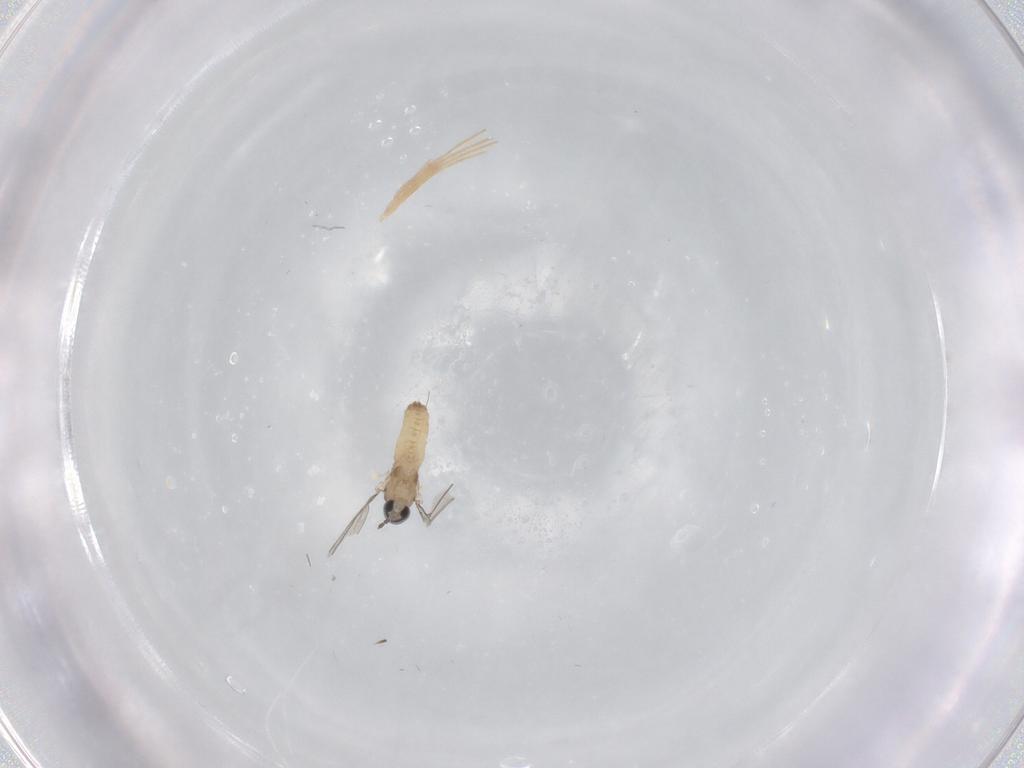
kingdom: Animalia
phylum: Arthropoda
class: Insecta
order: Diptera
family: Cecidomyiidae
